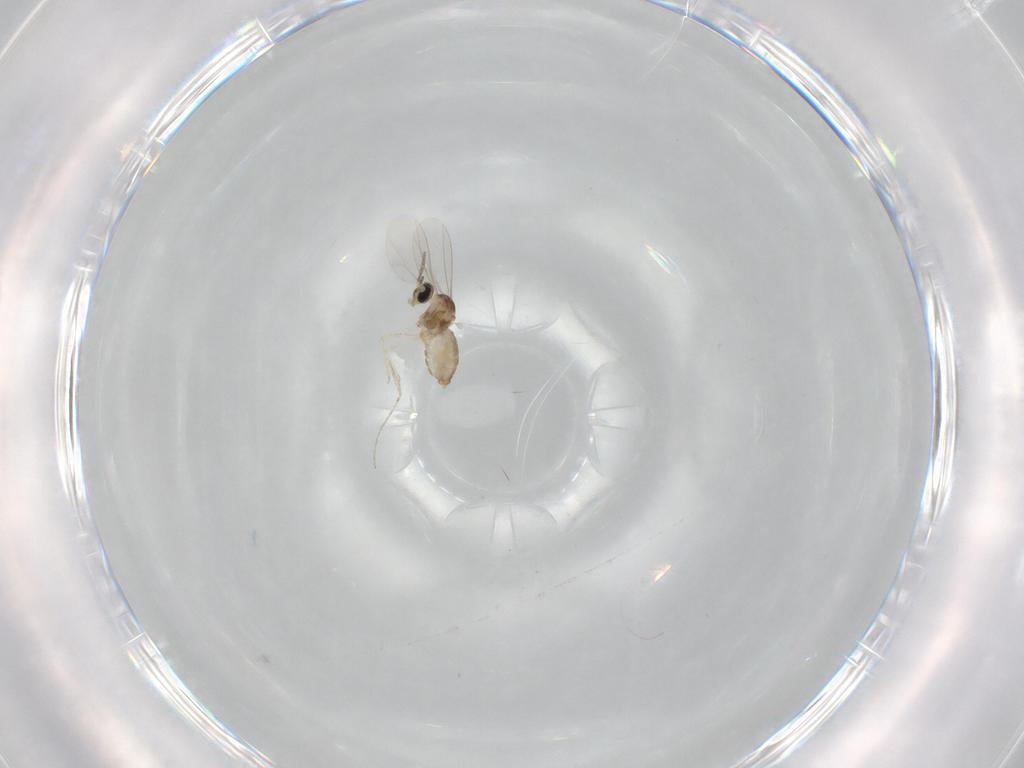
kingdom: Animalia
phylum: Arthropoda
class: Insecta
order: Diptera
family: Cecidomyiidae
